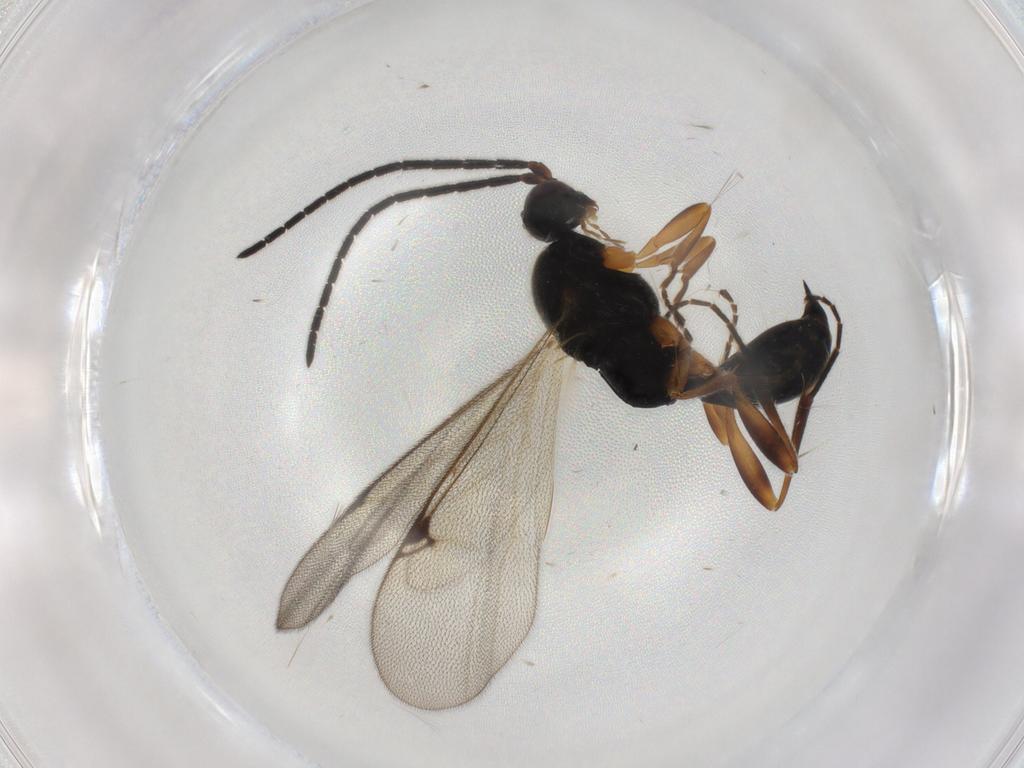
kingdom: Animalia
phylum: Arthropoda
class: Insecta
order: Hymenoptera
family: Proctotrupidae
